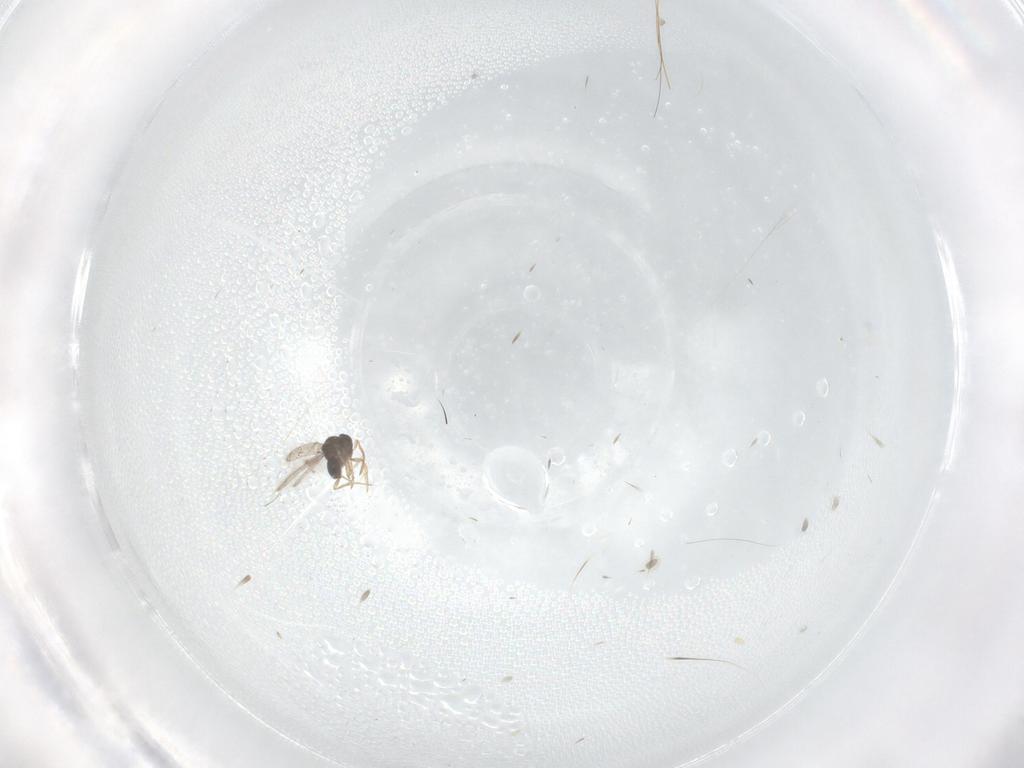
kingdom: Animalia
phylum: Arthropoda
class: Insecta
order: Hymenoptera
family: Scelionidae
